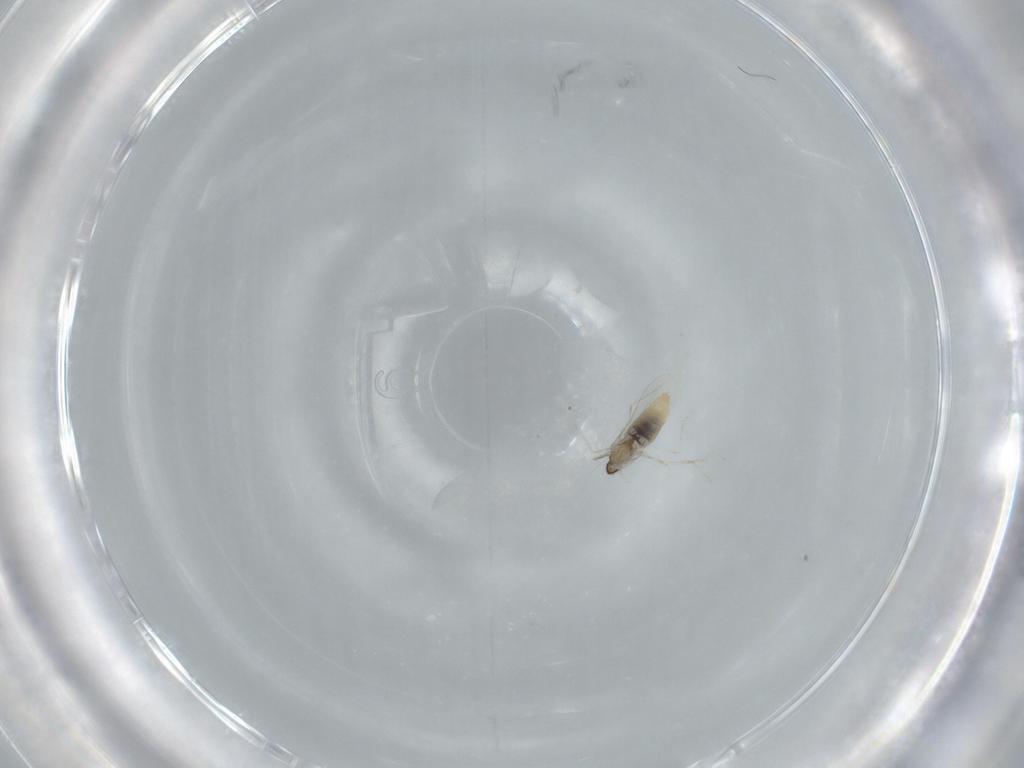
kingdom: Animalia
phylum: Arthropoda
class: Insecta
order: Diptera
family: Cecidomyiidae
